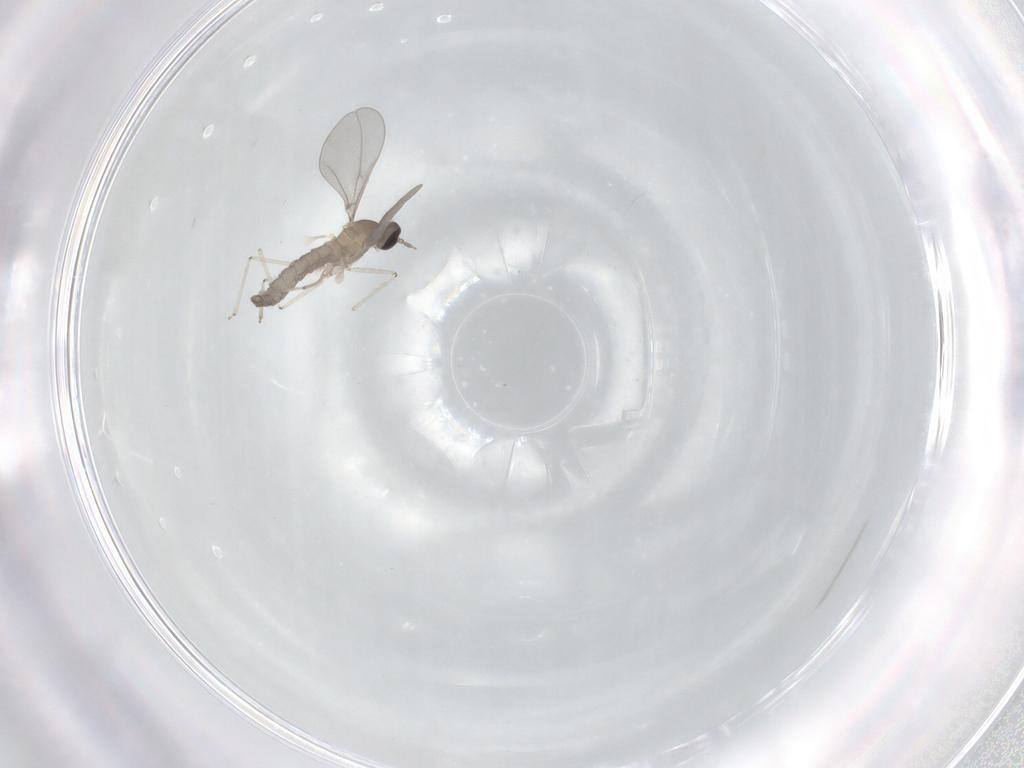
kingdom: Animalia
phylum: Arthropoda
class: Insecta
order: Diptera
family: Cecidomyiidae
